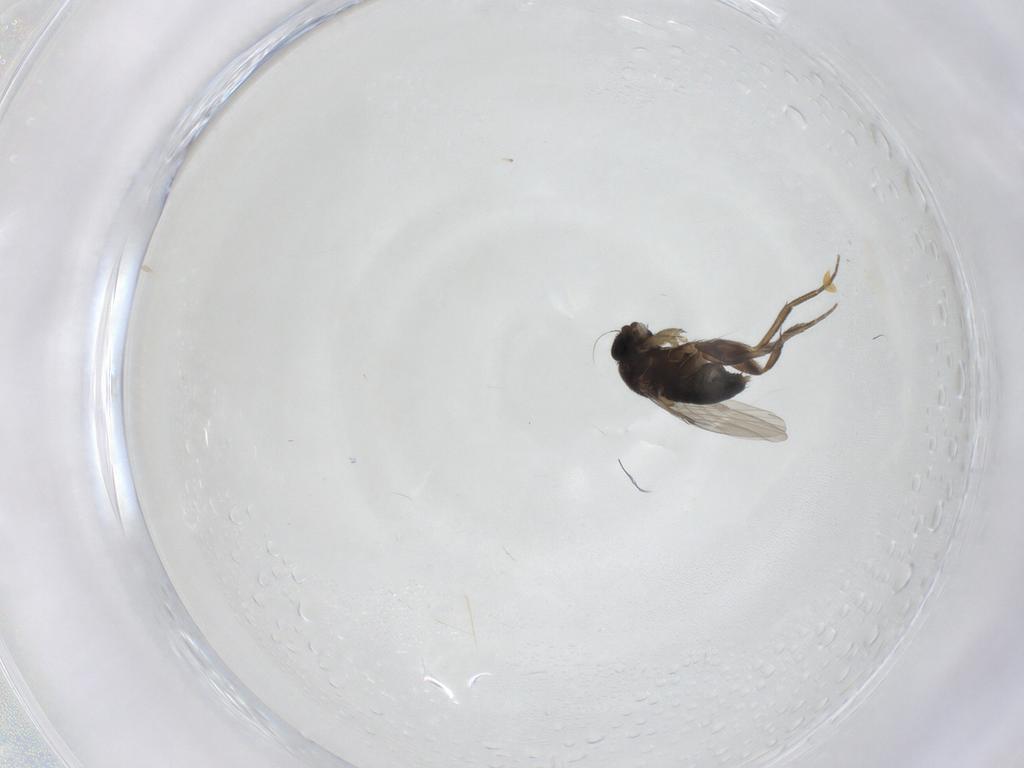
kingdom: Animalia
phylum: Arthropoda
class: Insecta
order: Diptera
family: Phoridae
